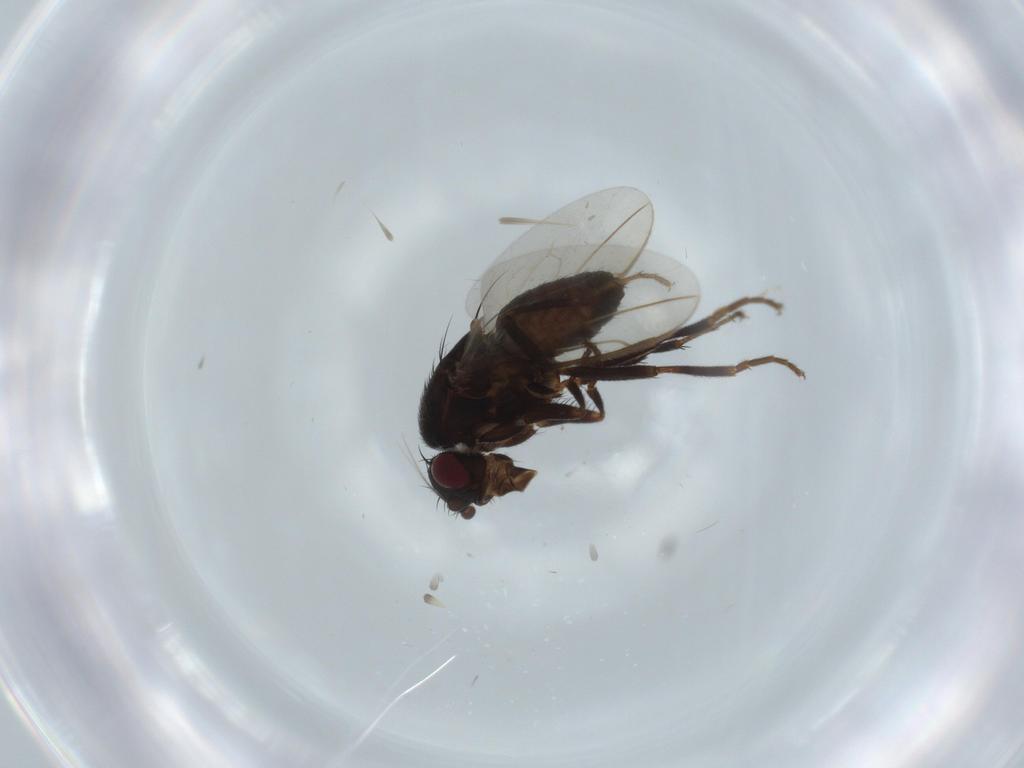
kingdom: Animalia
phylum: Arthropoda
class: Insecta
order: Diptera
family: Sphaeroceridae
